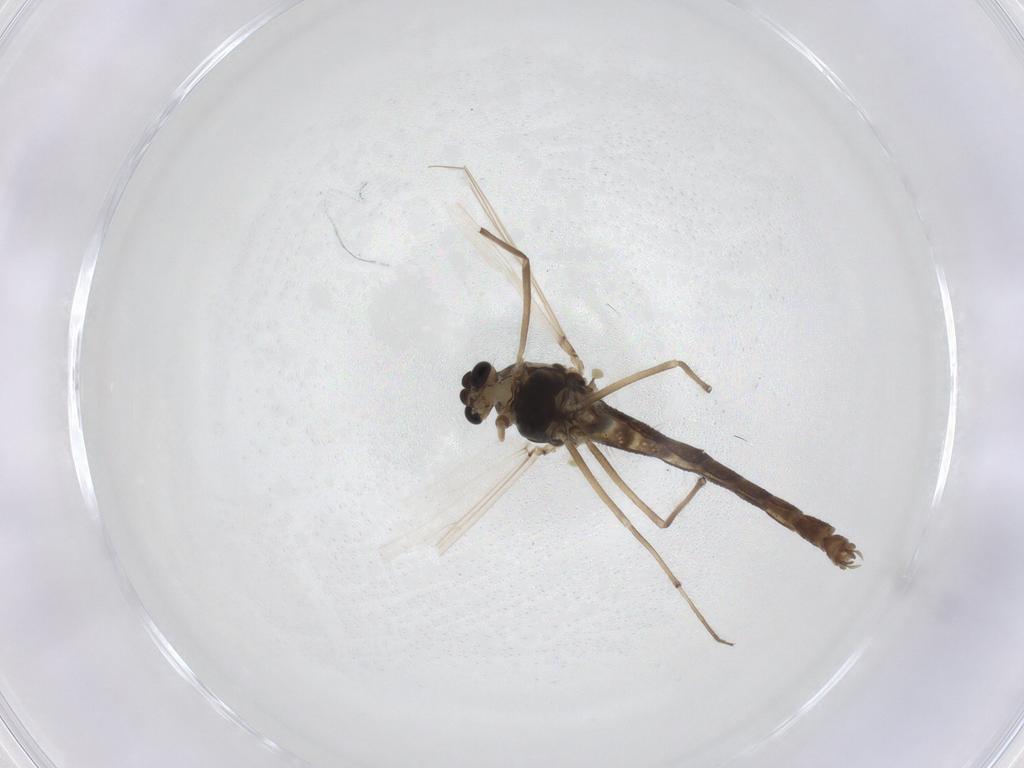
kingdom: Animalia
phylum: Arthropoda
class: Insecta
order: Diptera
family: Chironomidae
